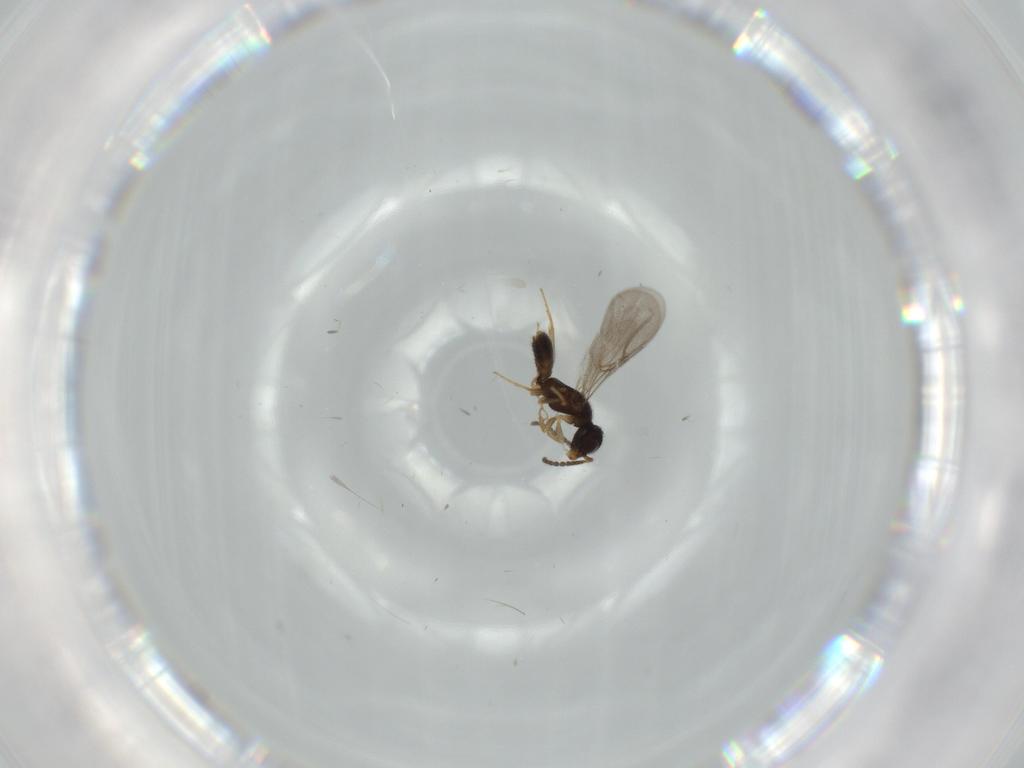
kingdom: Animalia
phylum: Arthropoda
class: Insecta
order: Hymenoptera
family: Bethylidae
